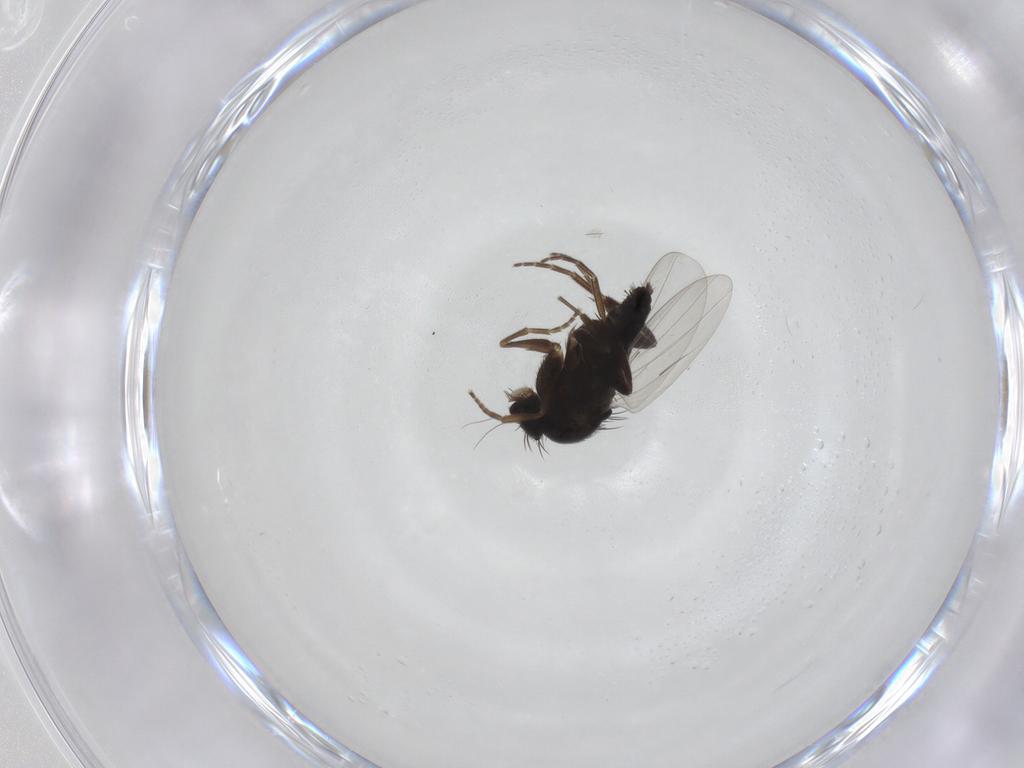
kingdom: Animalia
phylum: Arthropoda
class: Insecta
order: Diptera
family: Phoridae
